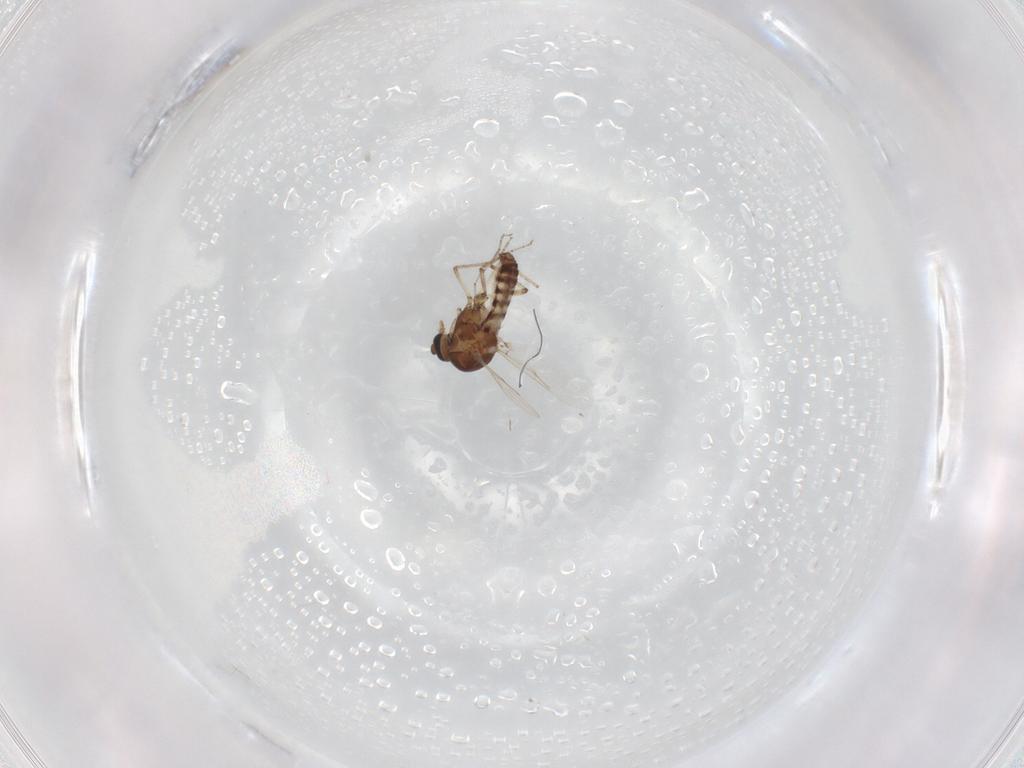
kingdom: Animalia
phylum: Arthropoda
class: Insecta
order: Diptera
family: Ceratopogonidae
